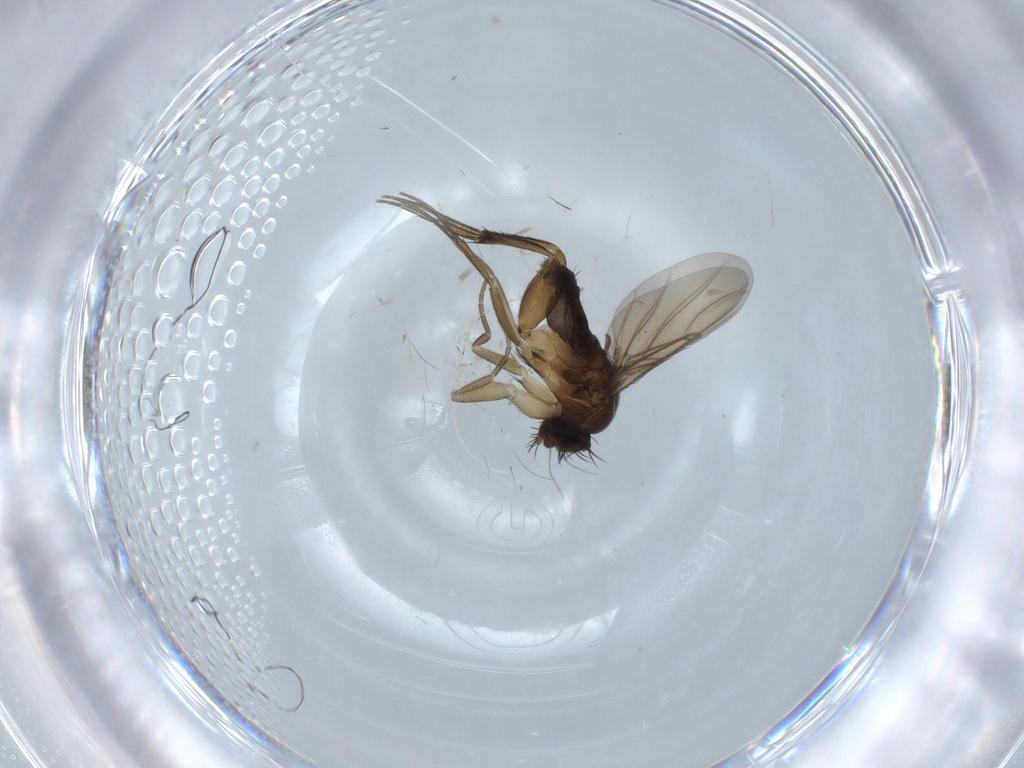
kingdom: Animalia
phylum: Arthropoda
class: Insecta
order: Diptera
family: Phoridae
